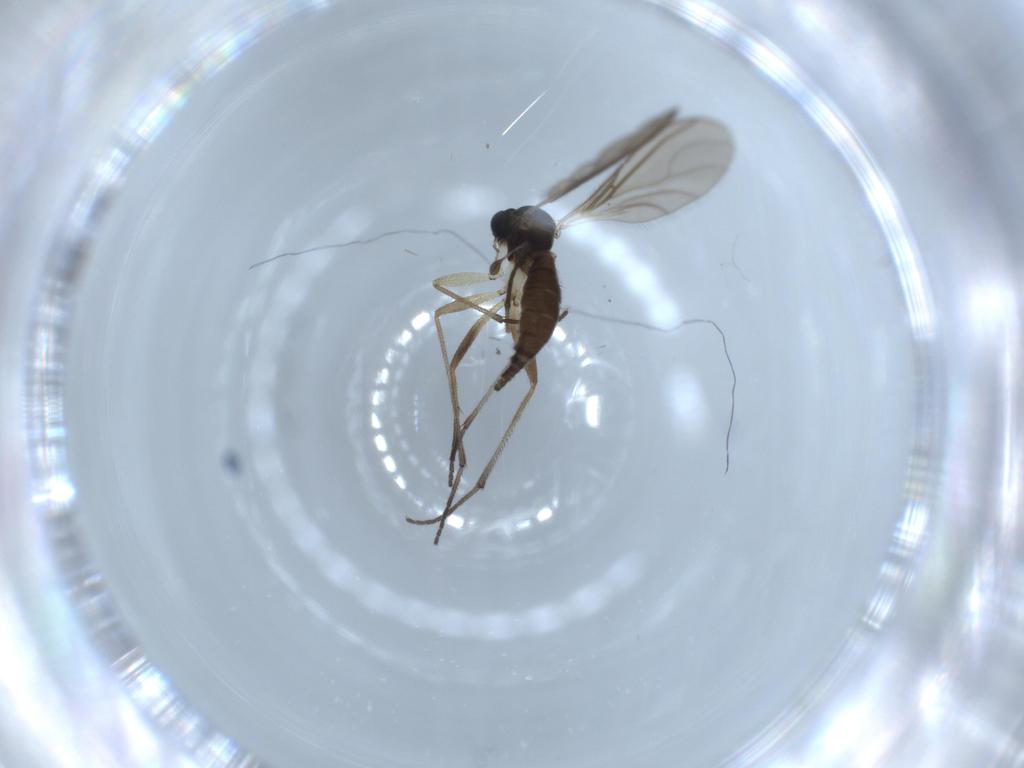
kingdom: Animalia
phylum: Arthropoda
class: Insecta
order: Diptera
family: Sciaridae
